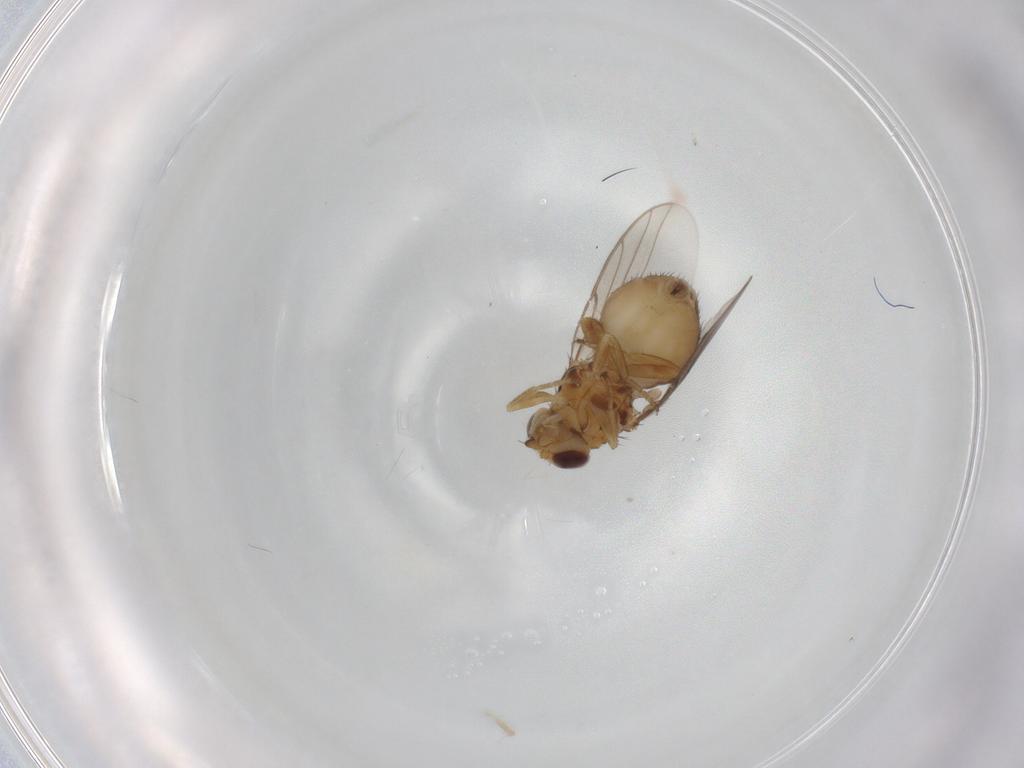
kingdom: Animalia
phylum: Arthropoda
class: Insecta
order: Diptera
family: Chloropidae
